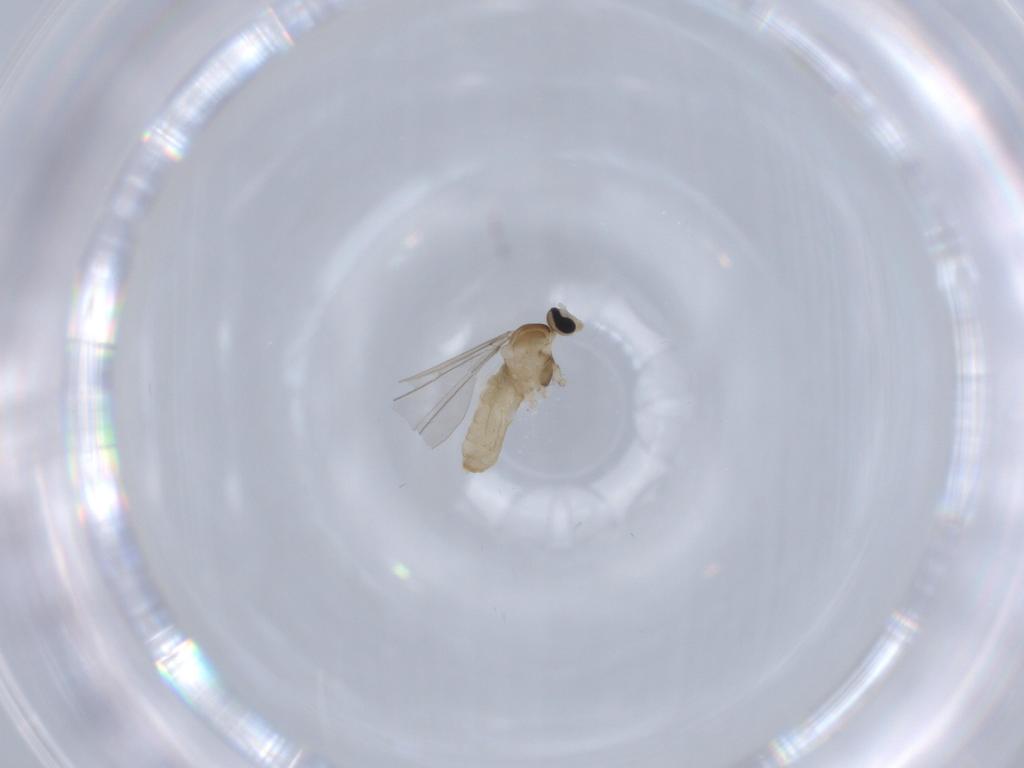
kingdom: Animalia
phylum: Arthropoda
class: Insecta
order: Diptera
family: Cecidomyiidae
